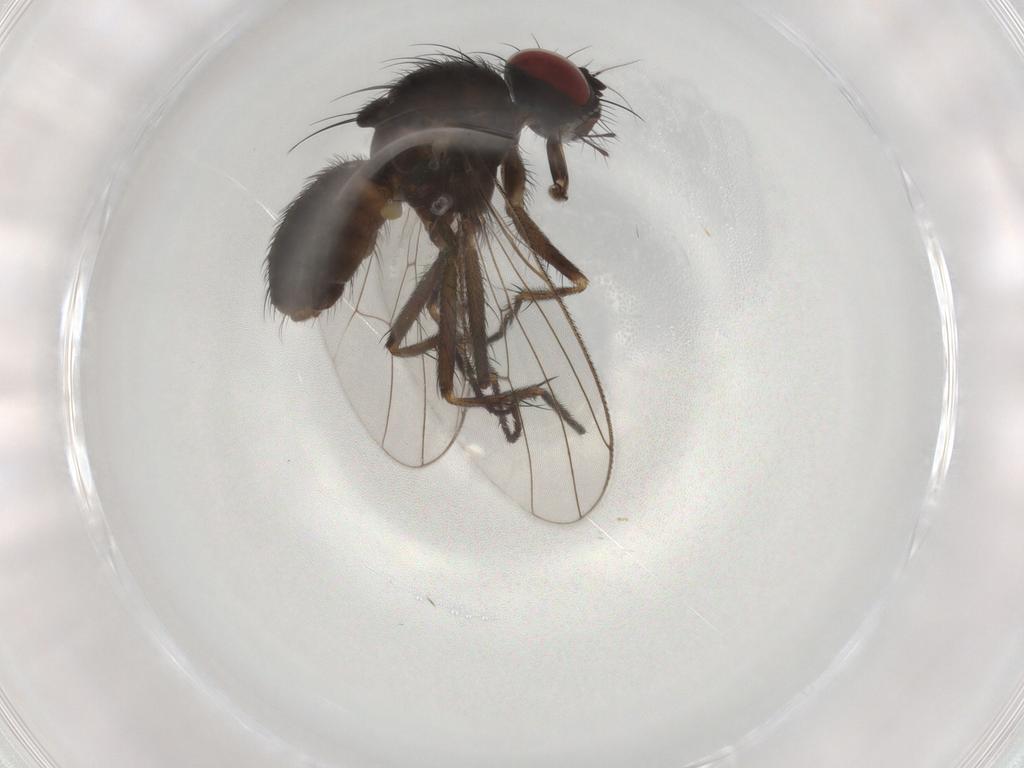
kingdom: Animalia
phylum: Arthropoda
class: Insecta
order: Diptera
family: Muscidae
